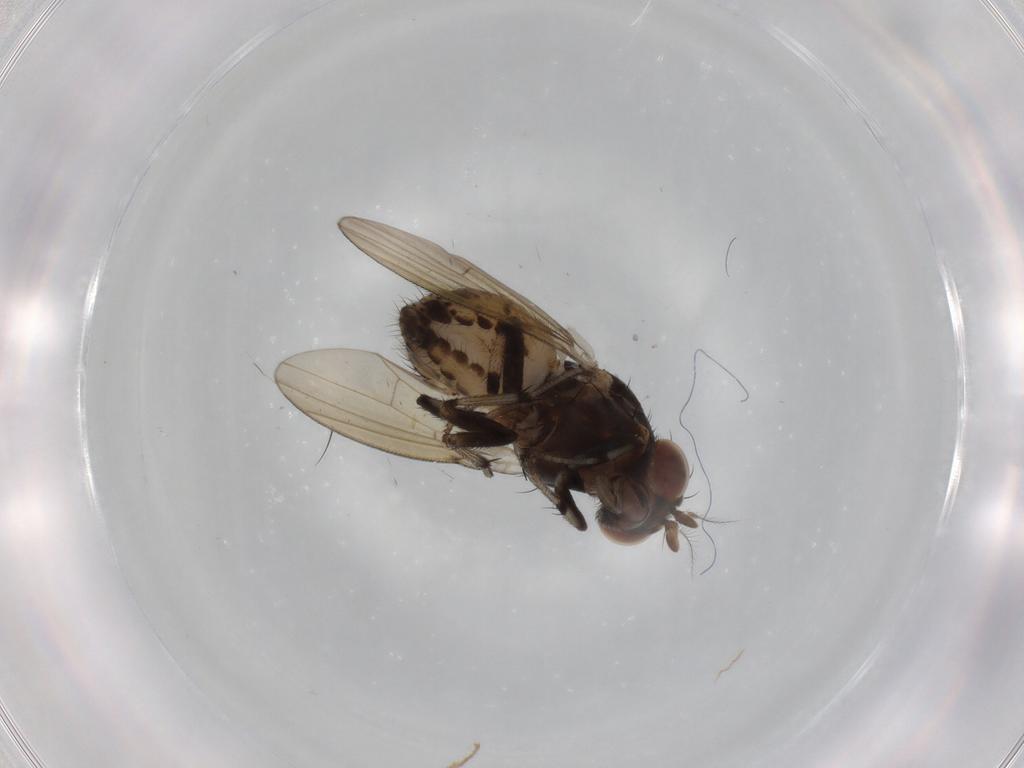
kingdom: Animalia
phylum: Arthropoda
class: Insecta
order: Diptera
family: Sciaridae
